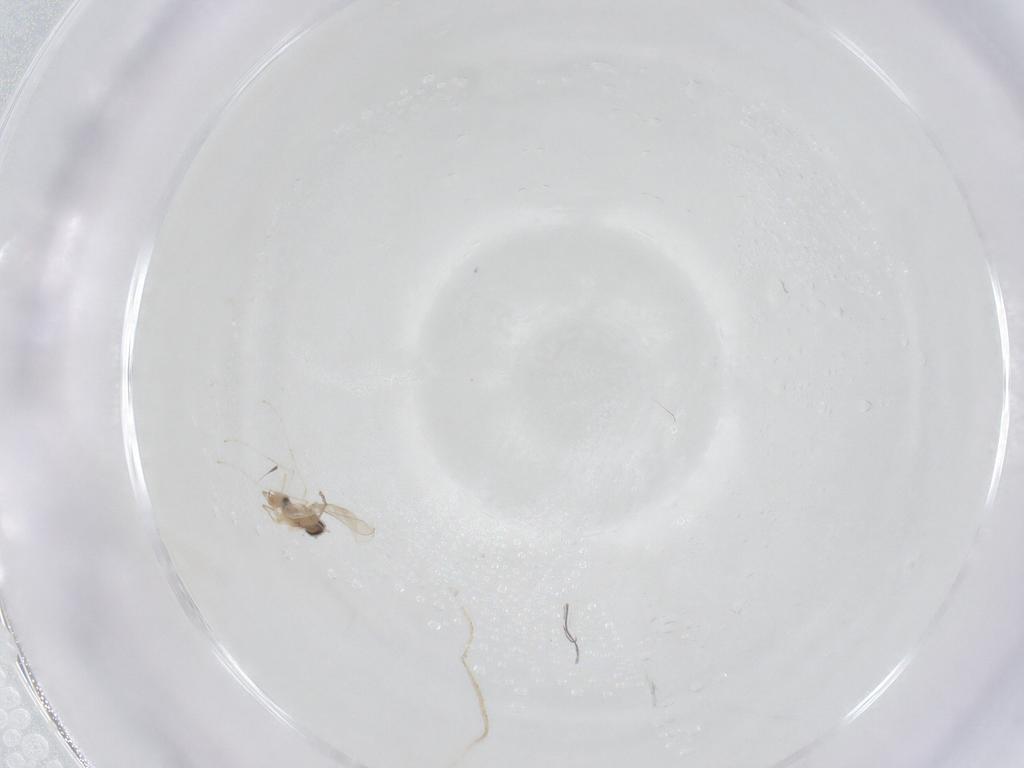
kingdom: Animalia
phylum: Arthropoda
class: Insecta
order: Diptera
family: Cecidomyiidae
